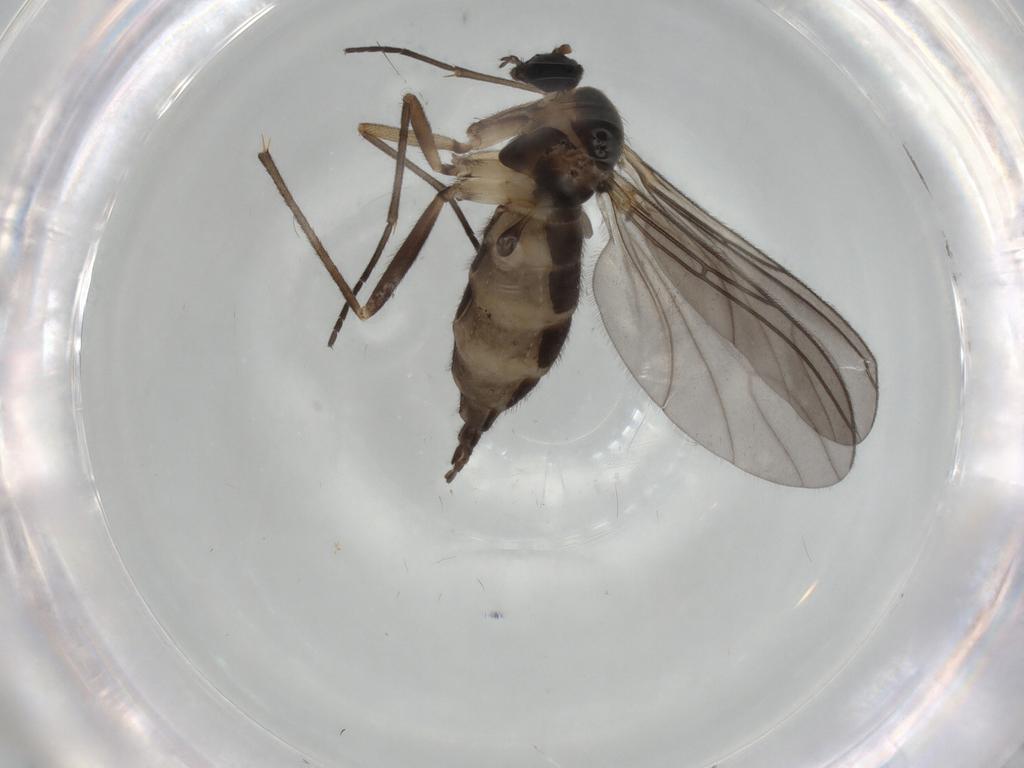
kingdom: Animalia
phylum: Arthropoda
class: Insecta
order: Diptera
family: Sciaridae
